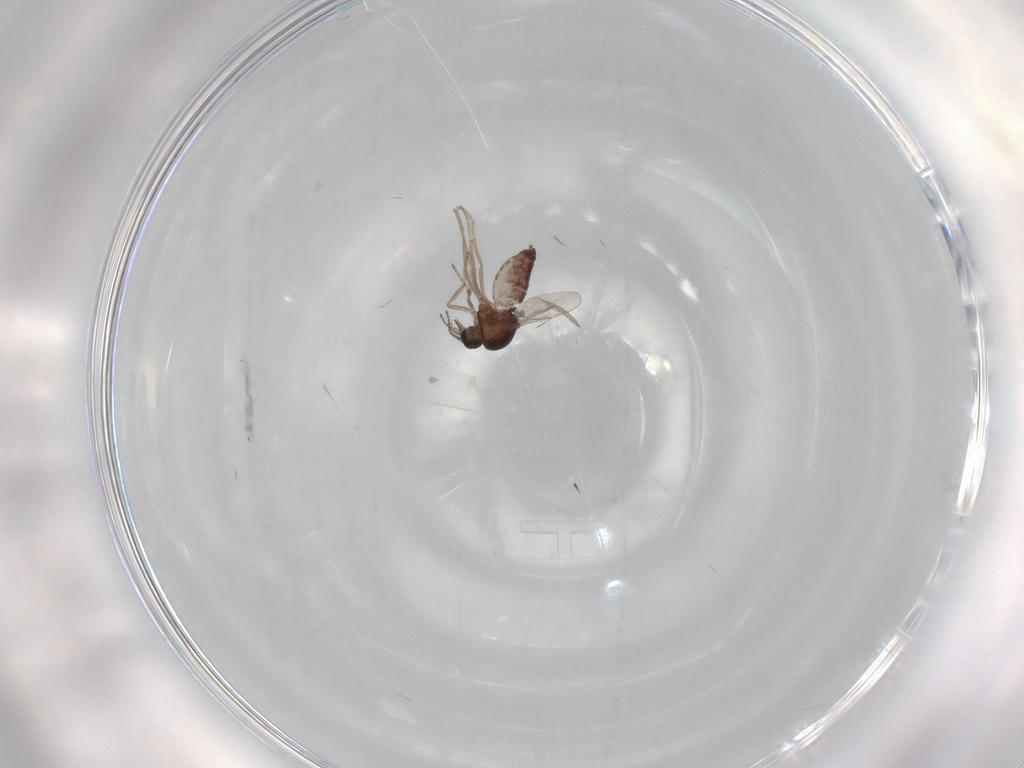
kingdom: Animalia
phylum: Arthropoda
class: Insecta
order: Diptera
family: Ceratopogonidae
